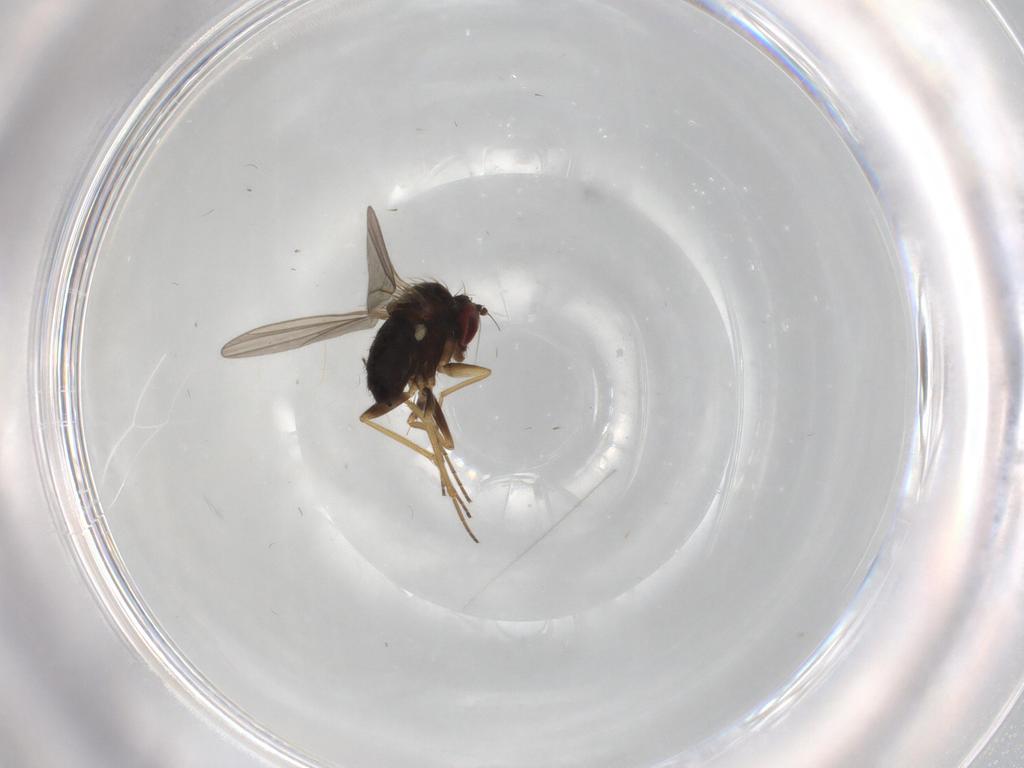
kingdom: Animalia
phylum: Arthropoda
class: Insecta
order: Diptera
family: Dolichopodidae
